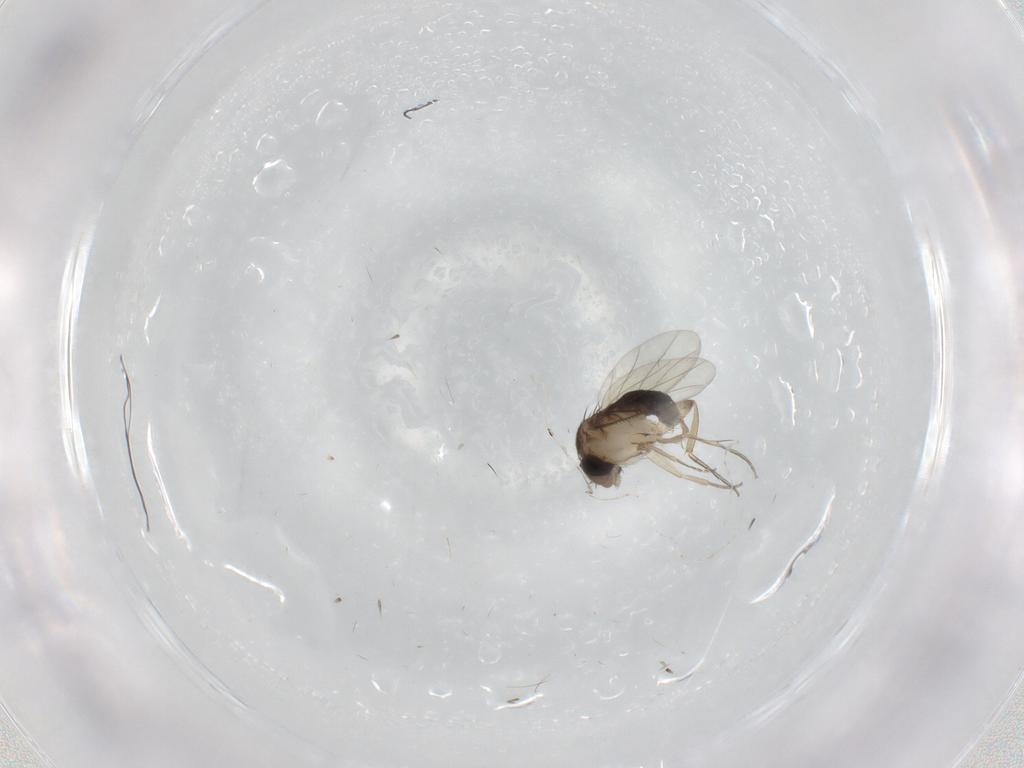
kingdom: Animalia
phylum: Arthropoda
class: Insecta
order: Diptera
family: Phoridae
